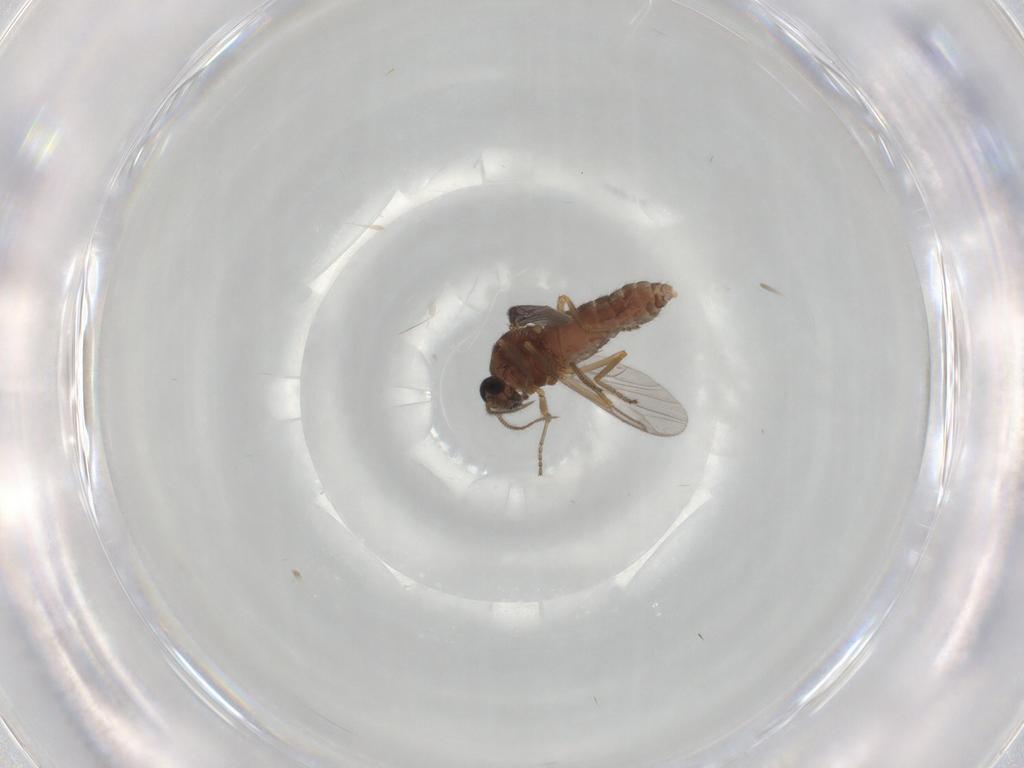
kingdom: Animalia
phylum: Arthropoda
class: Insecta
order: Diptera
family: Ceratopogonidae
